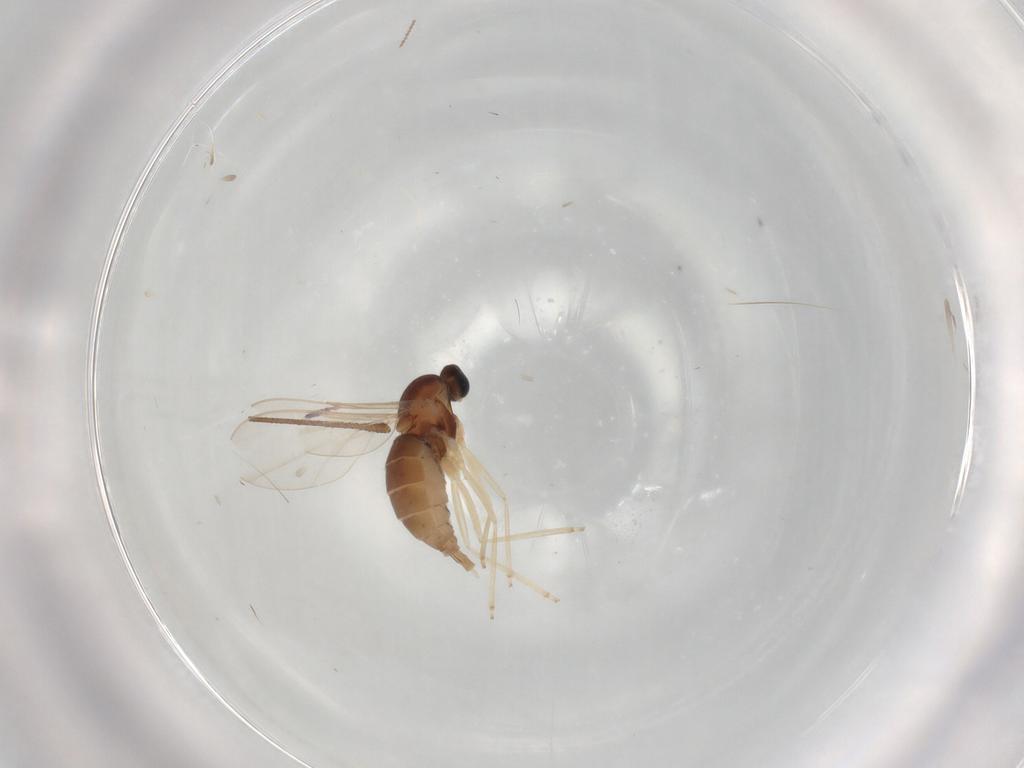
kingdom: Animalia
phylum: Arthropoda
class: Insecta
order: Diptera
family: Cecidomyiidae
